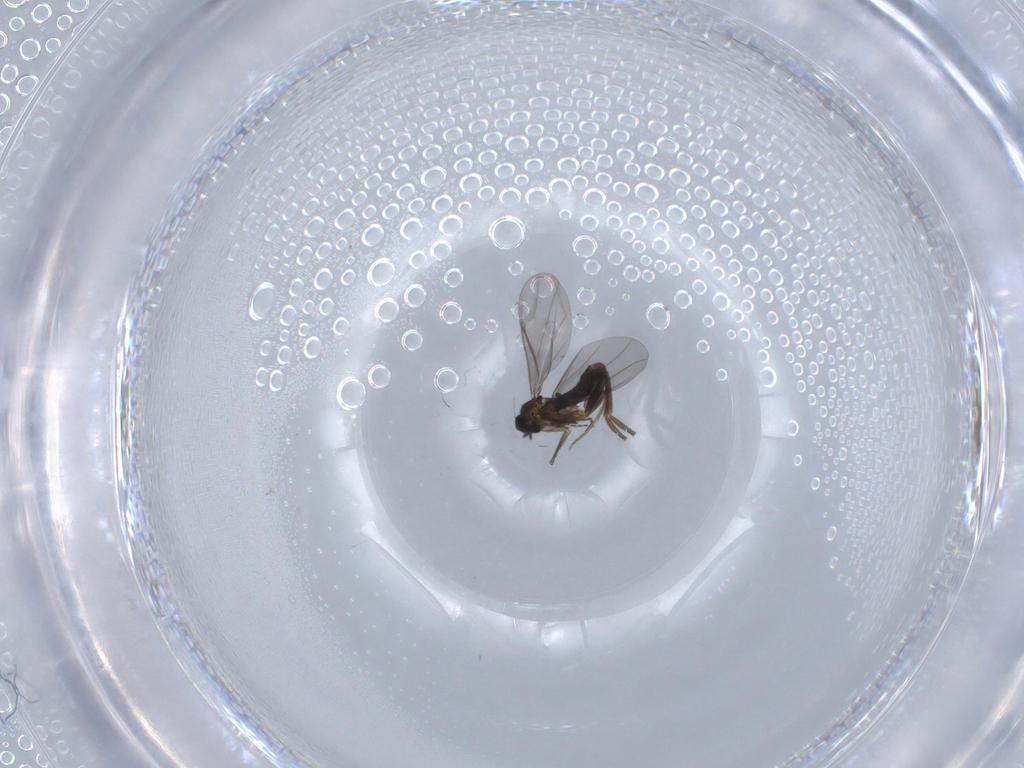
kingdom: Animalia
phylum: Arthropoda
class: Insecta
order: Diptera
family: Phoridae
